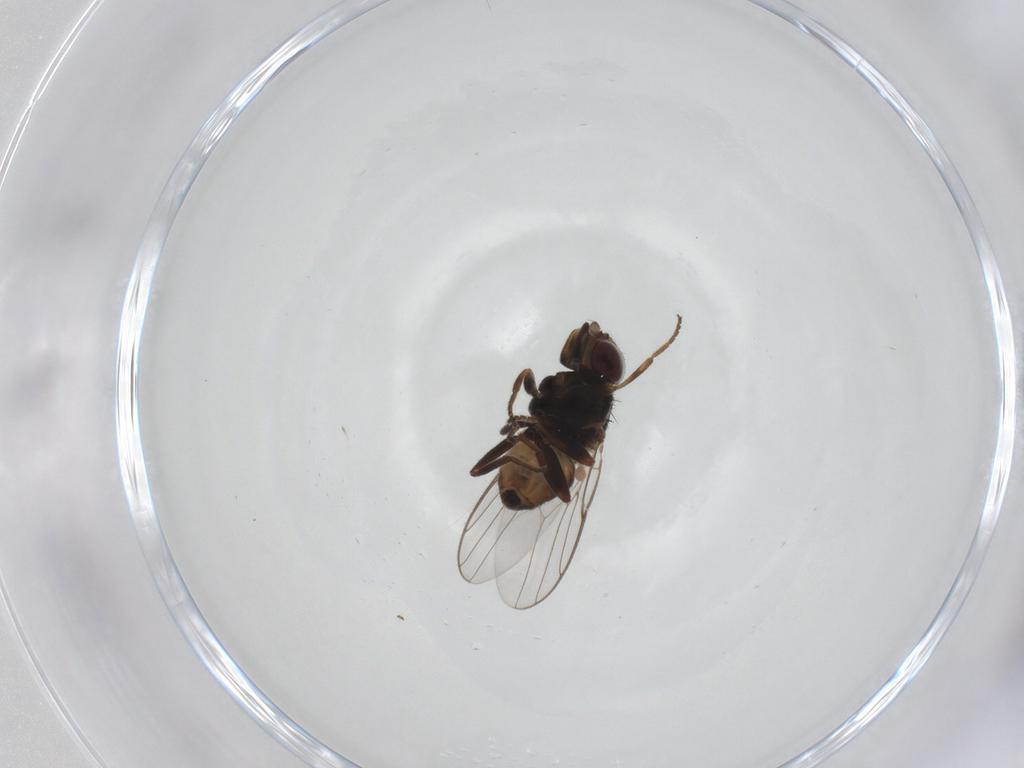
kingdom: Animalia
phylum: Arthropoda
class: Insecta
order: Diptera
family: Chloropidae
